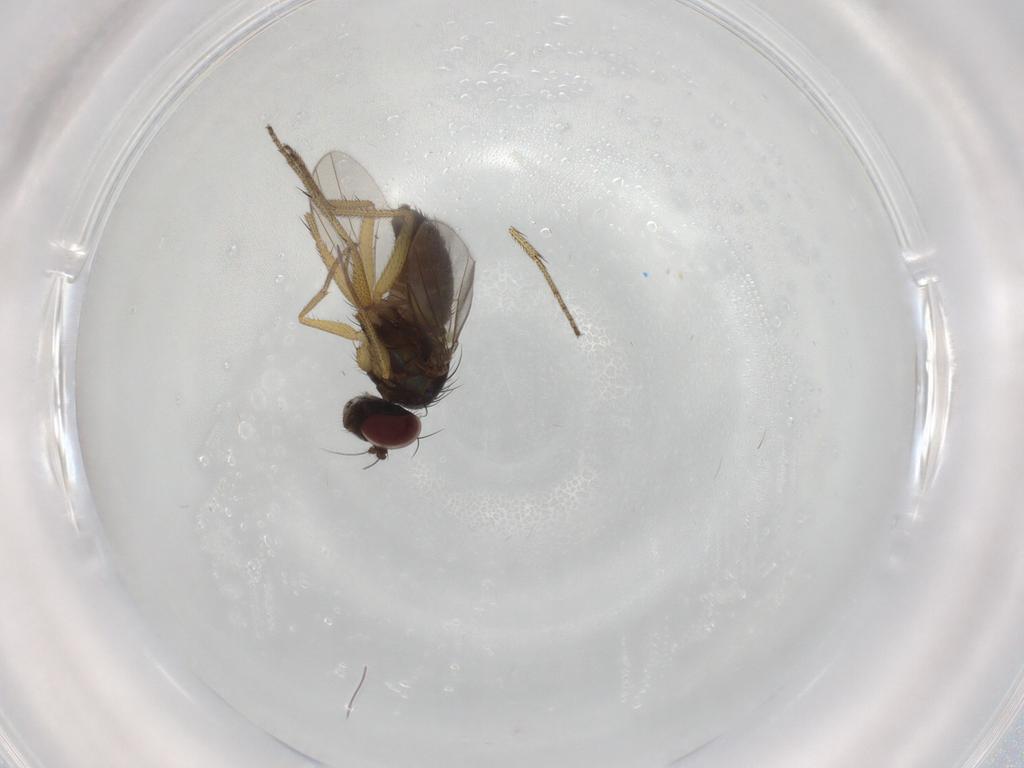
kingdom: Animalia
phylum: Arthropoda
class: Insecta
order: Diptera
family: Dolichopodidae
